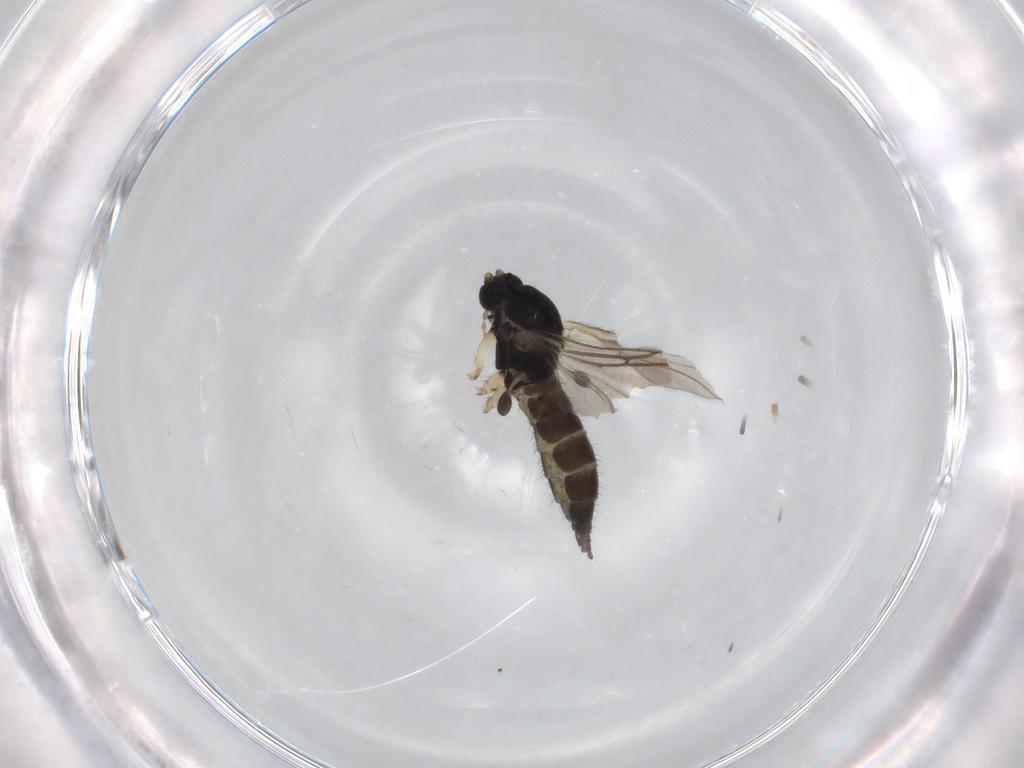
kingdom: Animalia
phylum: Arthropoda
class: Insecta
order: Diptera
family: Sciaridae
